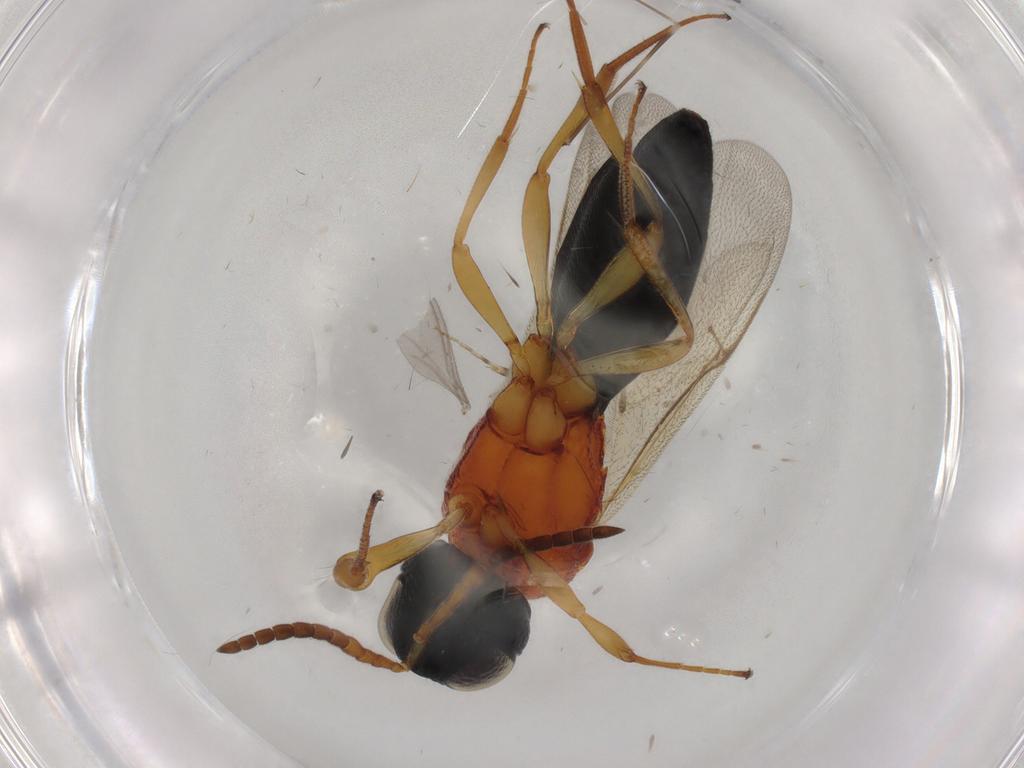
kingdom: Animalia
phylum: Arthropoda
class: Insecta
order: Hymenoptera
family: Scelionidae
